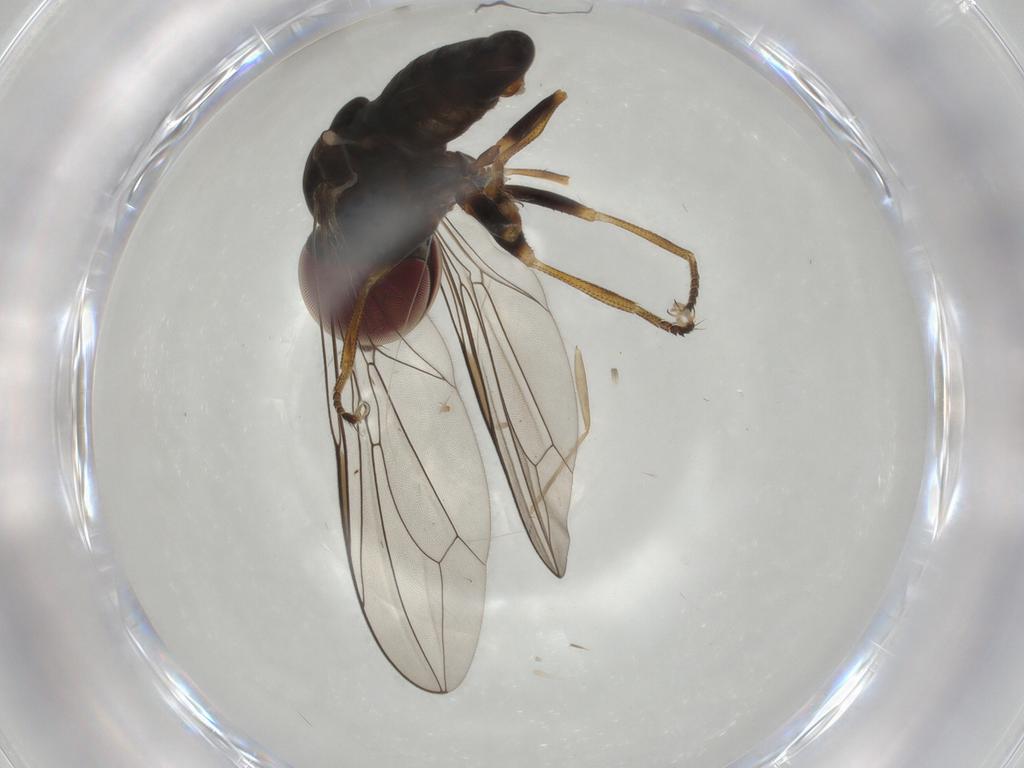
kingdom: Animalia
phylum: Arthropoda
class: Insecta
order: Diptera
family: Pipunculidae
